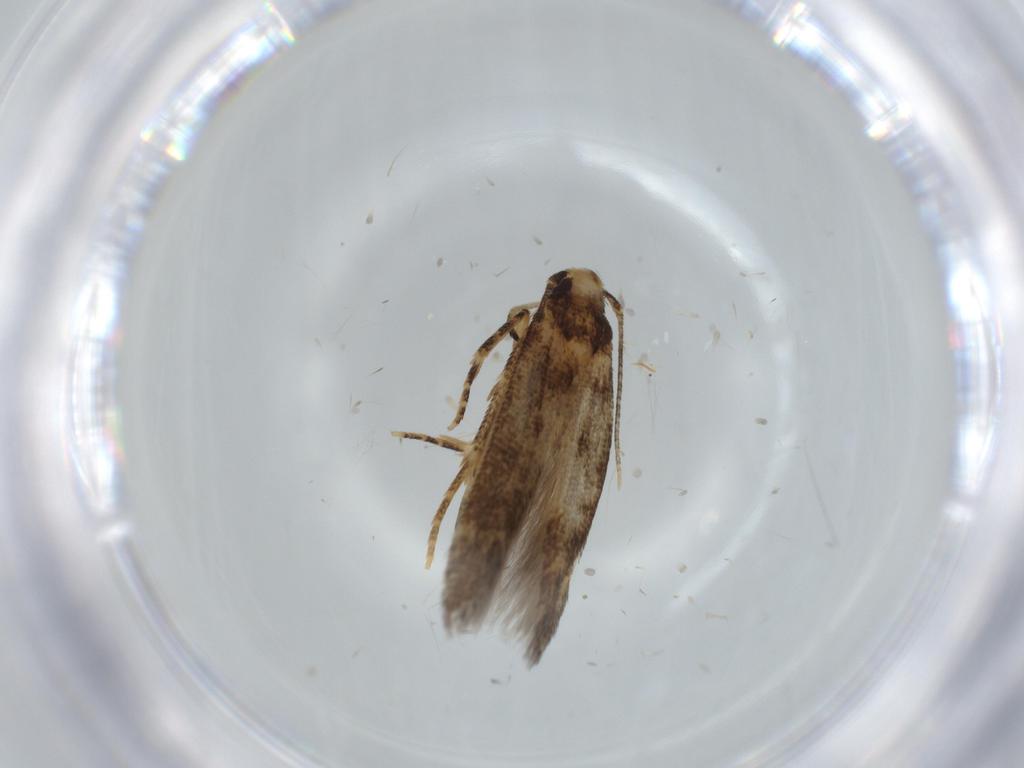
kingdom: Animalia
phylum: Arthropoda
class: Insecta
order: Lepidoptera
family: Cosmopterigidae
